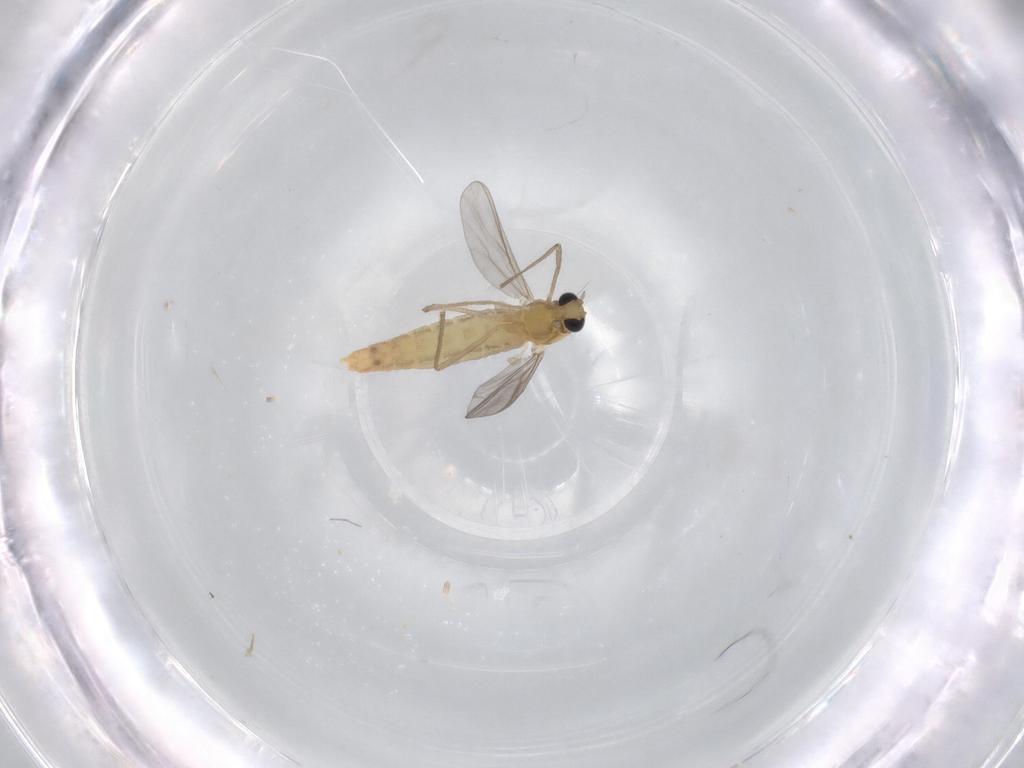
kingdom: Animalia
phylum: Arthropoda
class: Insecta
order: Diptera
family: Chironomidae
